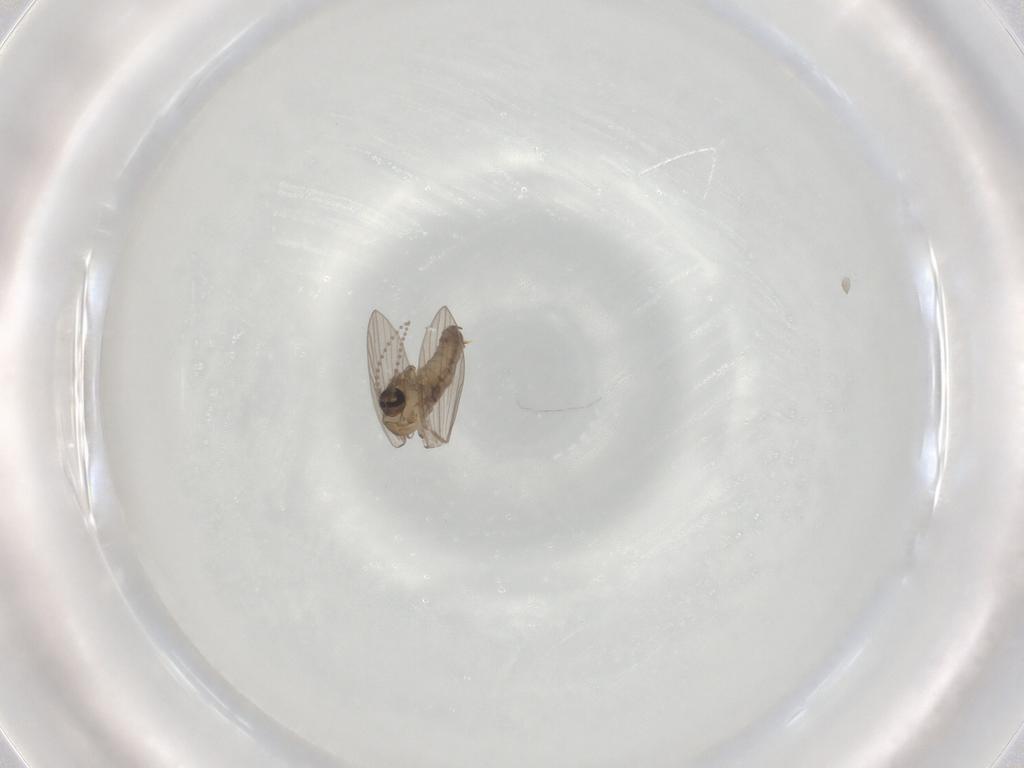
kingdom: Animalia
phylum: Arthropoda
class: Insecta
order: Diptera
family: Psychodidae
